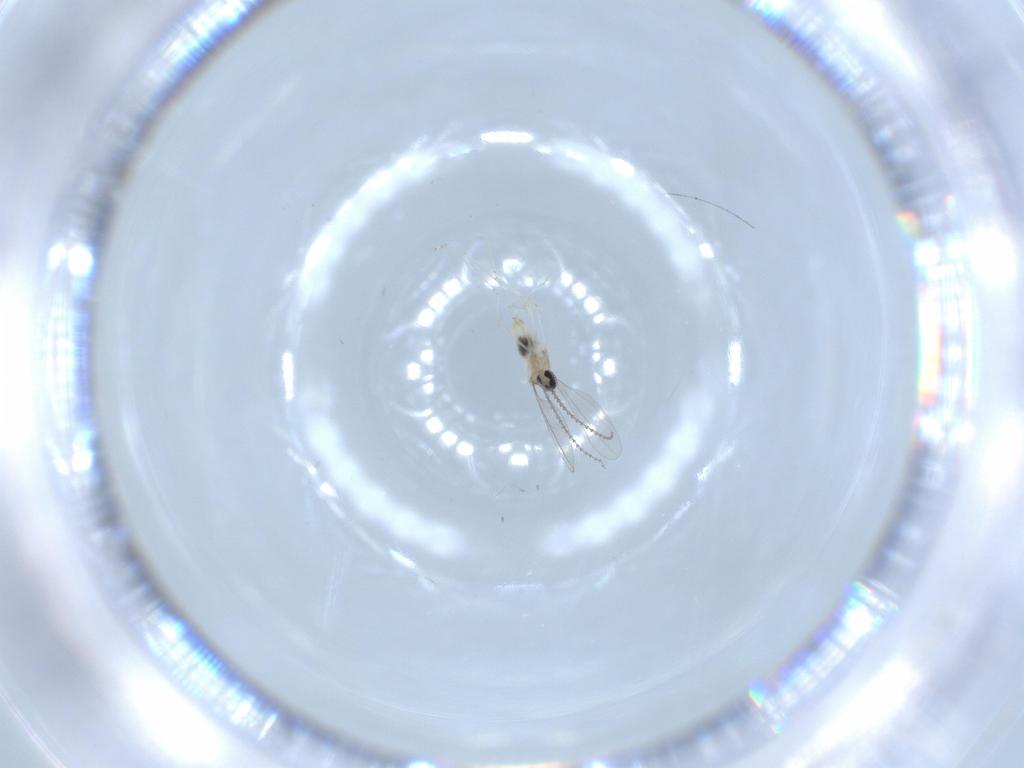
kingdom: Animalia
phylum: Arthropoda
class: Insecta
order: Diptera
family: Cecidomyiidae
